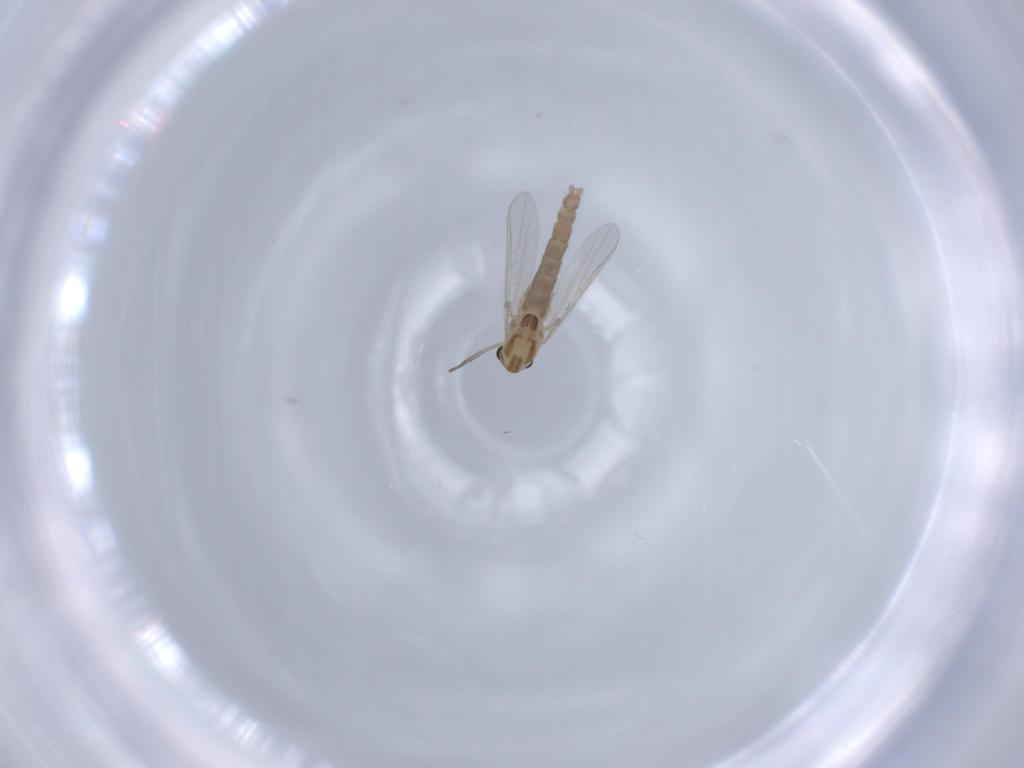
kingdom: Animalia
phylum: Arthropoda
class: Insecta
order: Diptera
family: Chironomidae
